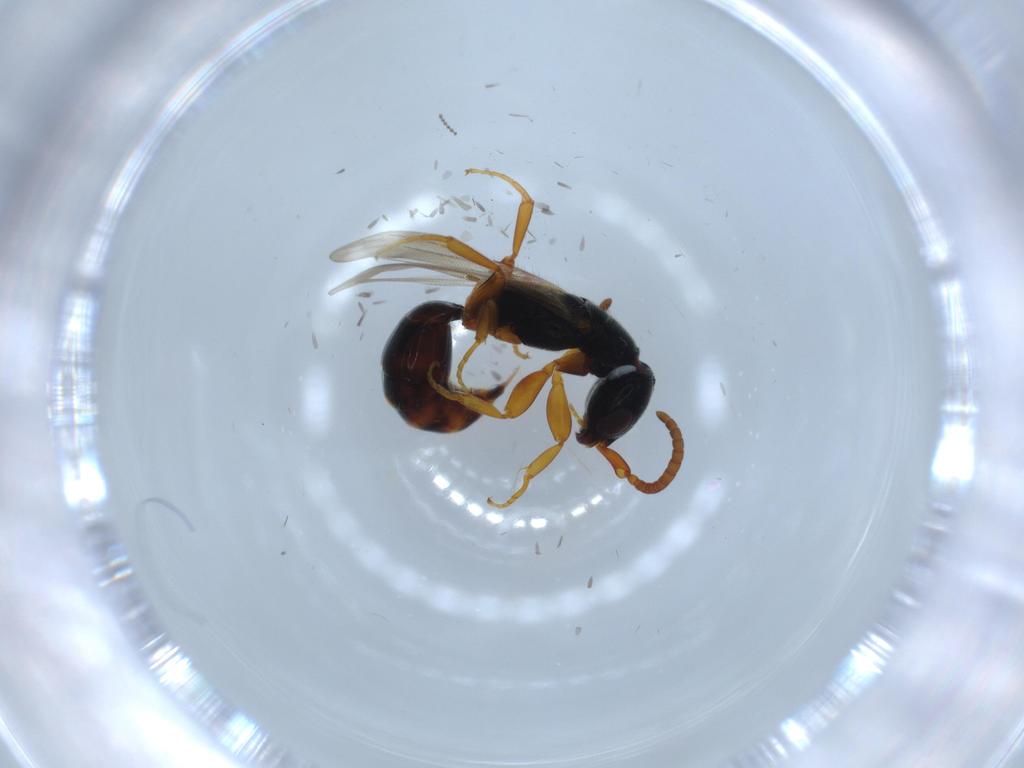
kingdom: Animalia
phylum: Arthropoda
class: Insecta
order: Hymenoptera
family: Bethylidae
